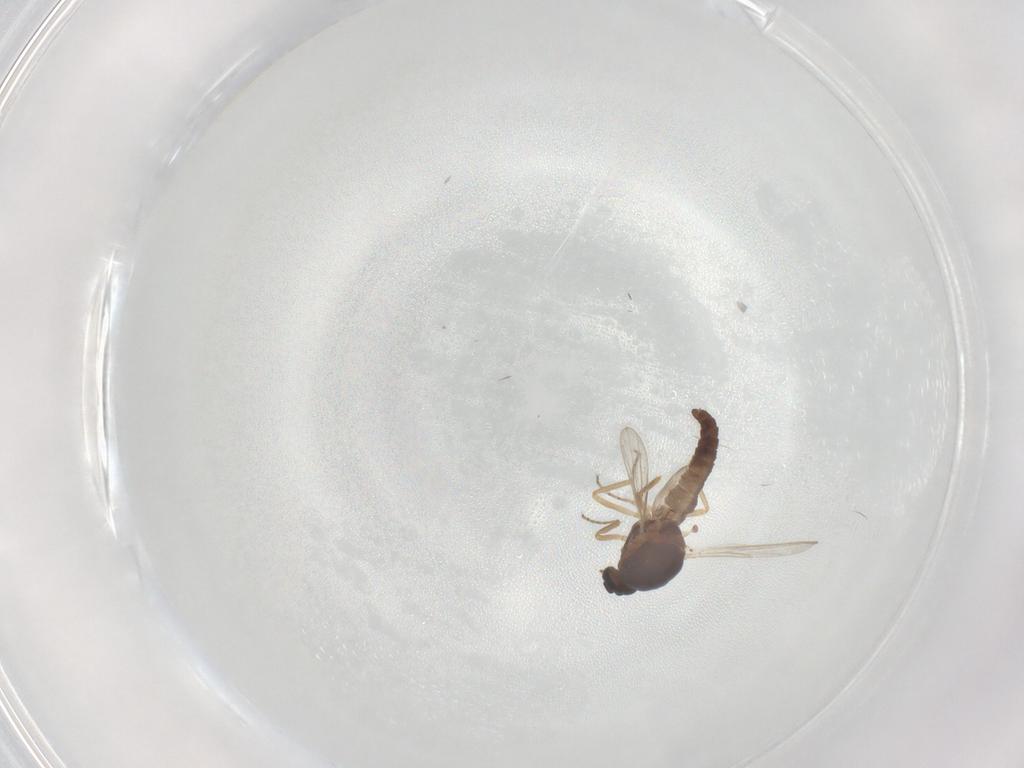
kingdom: Animalia
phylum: Arthropoda
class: Insecta
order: Diptera
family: Ceratopogonidae
